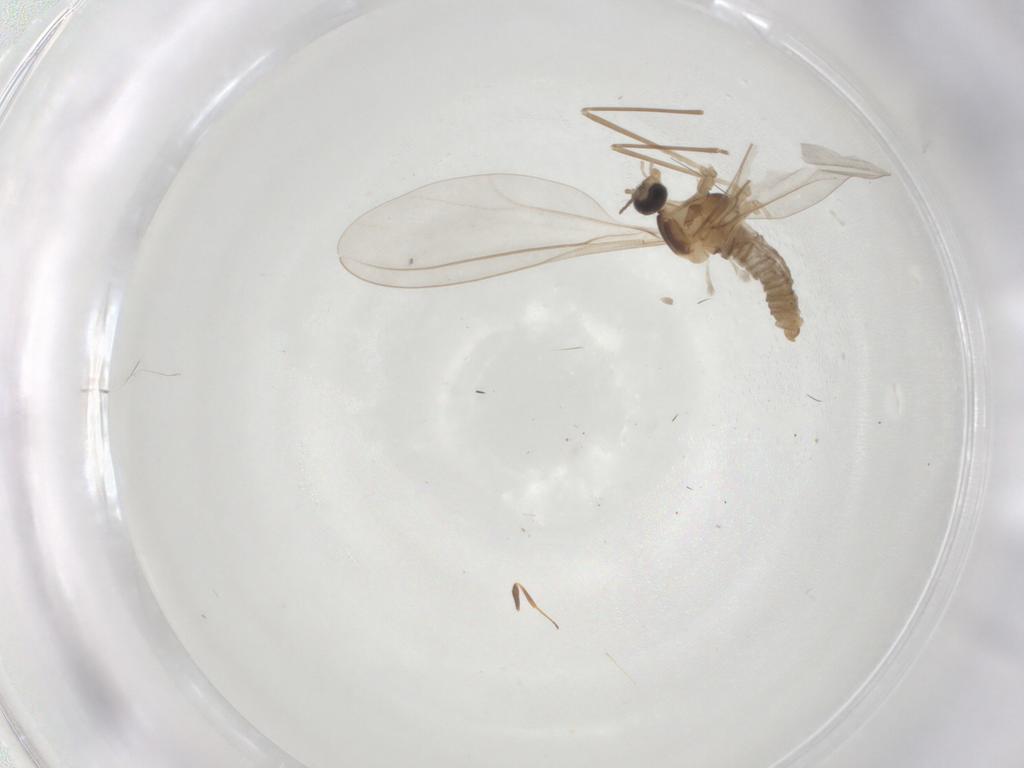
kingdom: Animalia
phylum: Arthropoda
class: Insecta
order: Diptera
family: Cecidomyiidae
